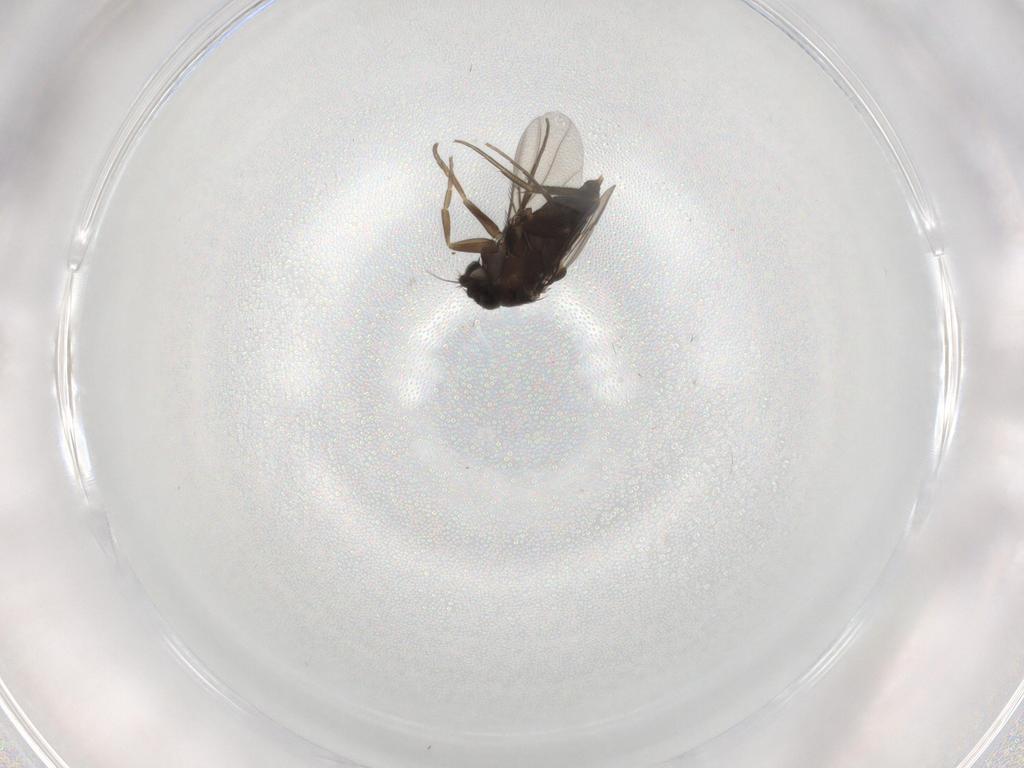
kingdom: Animalia
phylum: Arthropoda
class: Insecta
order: Diptera
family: Phoridae
